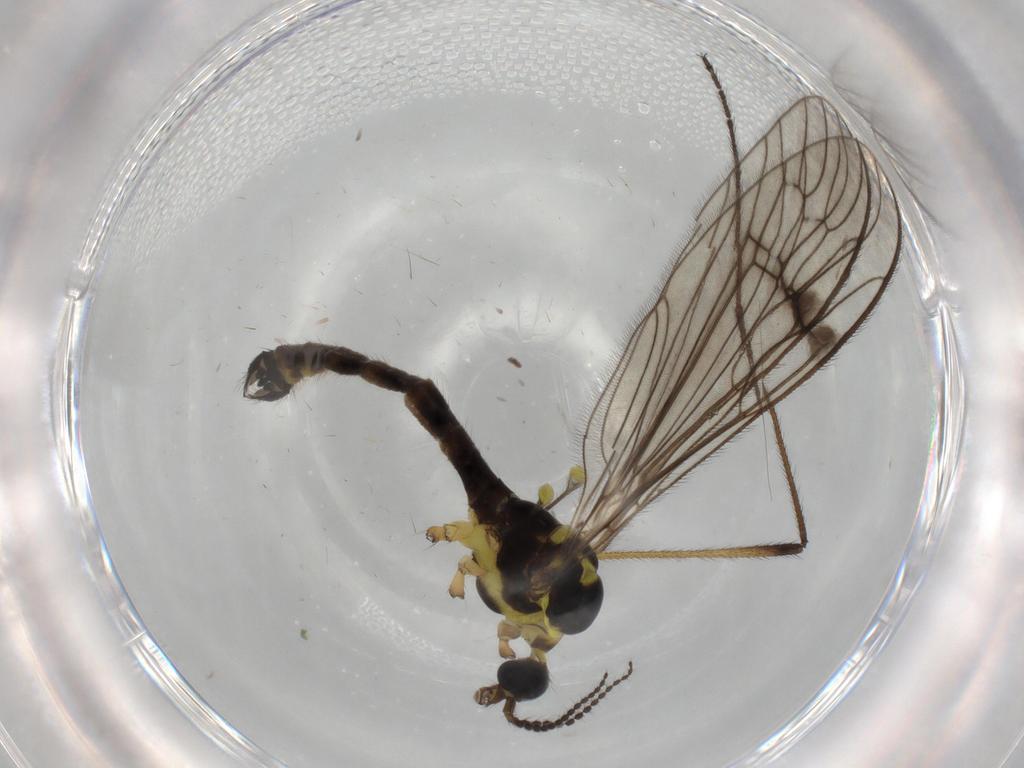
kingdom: Animalia
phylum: Arthropoda
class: Insecta
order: Diptera
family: Limoniidae
